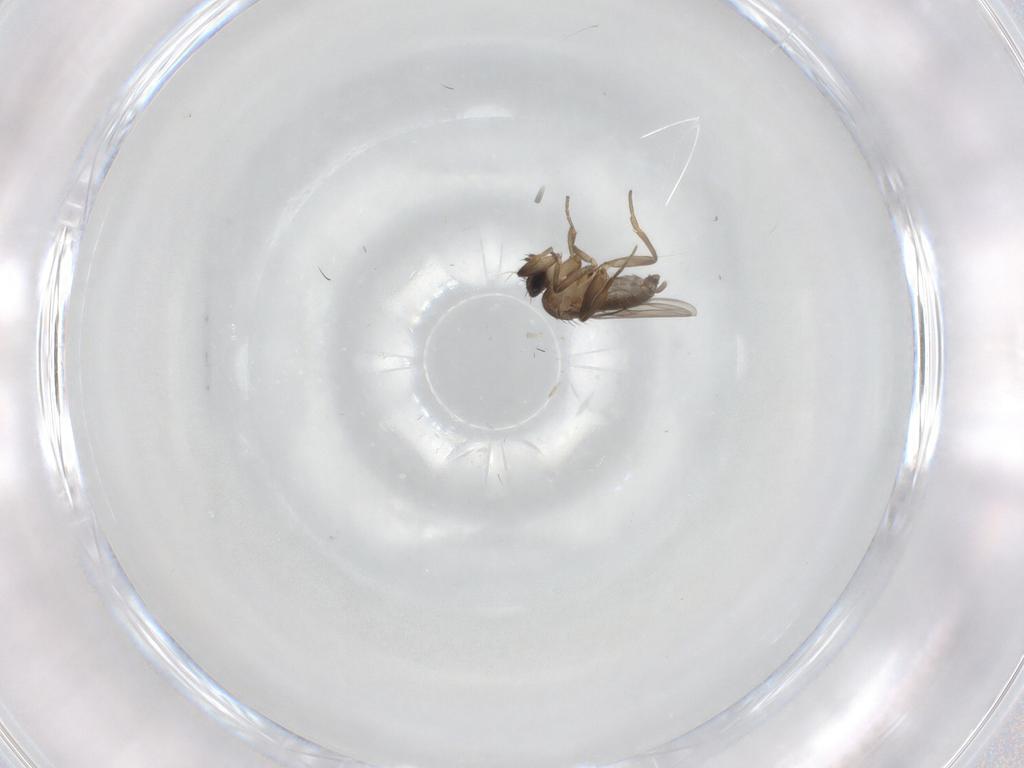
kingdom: Animalia
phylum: Arthropoda
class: Insecta
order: Diptera
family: Phoridae
